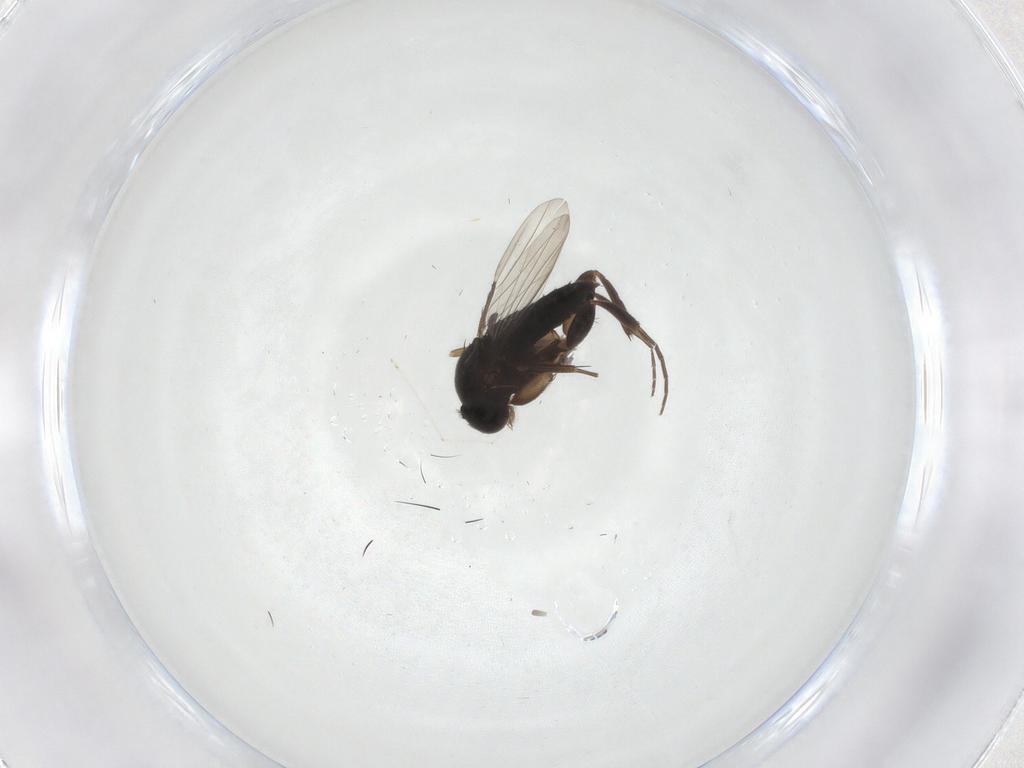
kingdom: Animalia
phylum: Arthropoda
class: Insecta
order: Diptera
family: Cecidomyiidae
